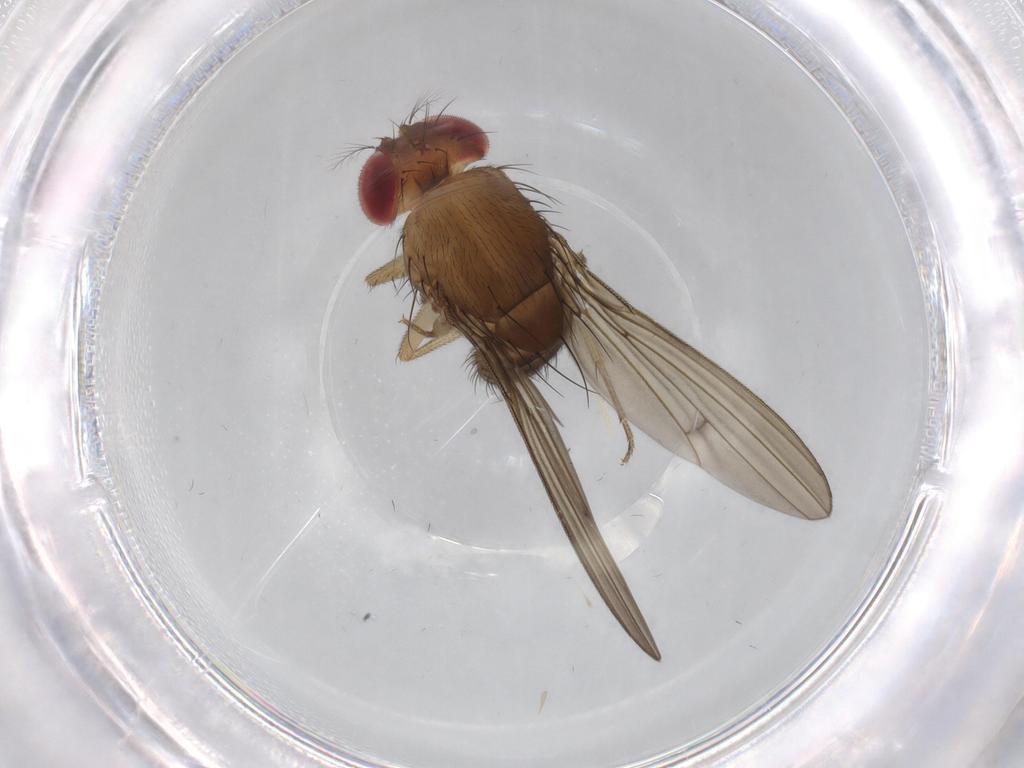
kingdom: Animalia
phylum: Arthropoda
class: Insecta
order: Diptera
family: Drosophilidae
